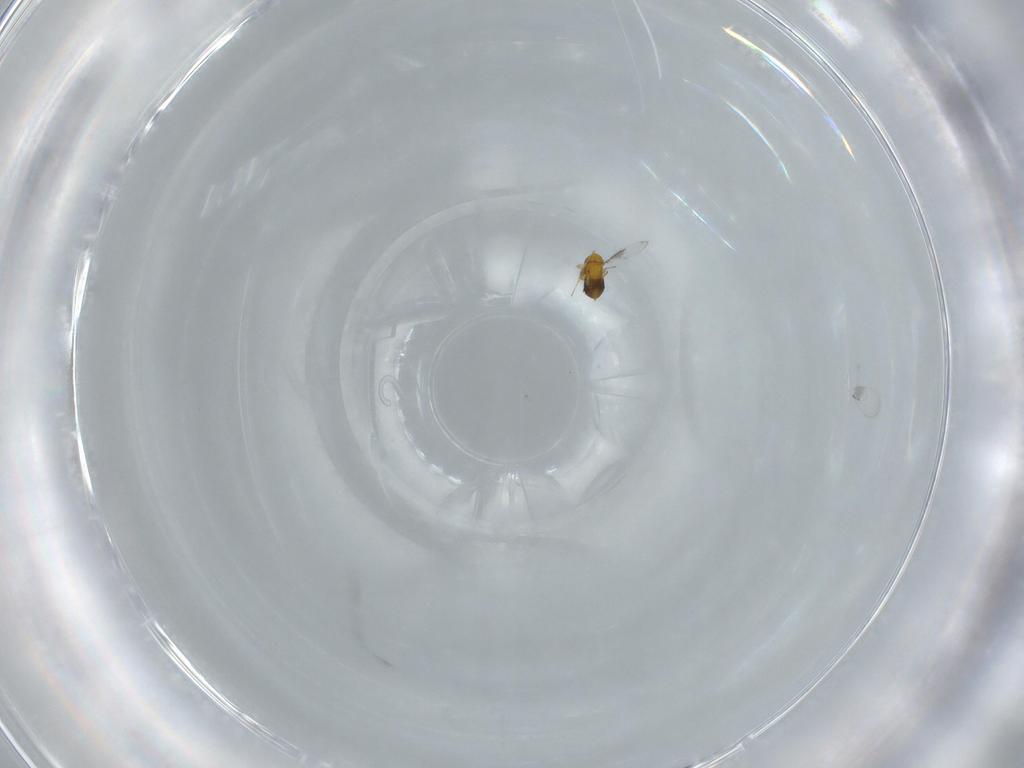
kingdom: Animalia
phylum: Arthropoda
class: Insecta
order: Hymenoptera
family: Trichogrammatidae
